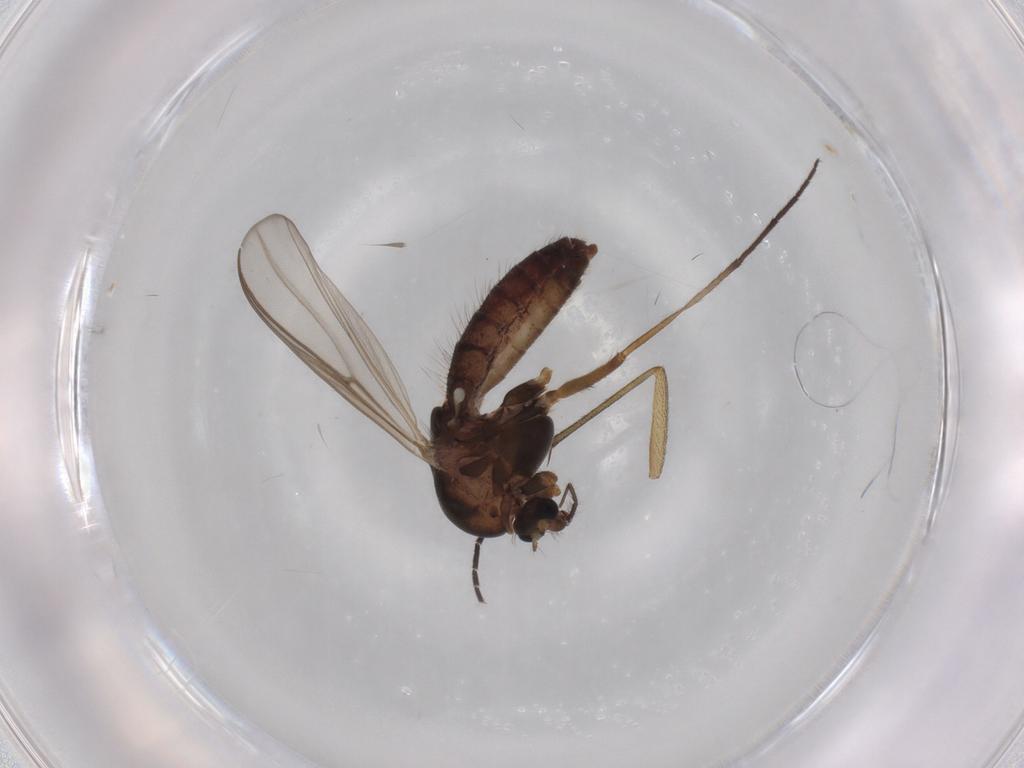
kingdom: Animalia
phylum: Arthropoda
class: Insecta
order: Diptera
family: Chironomidae
